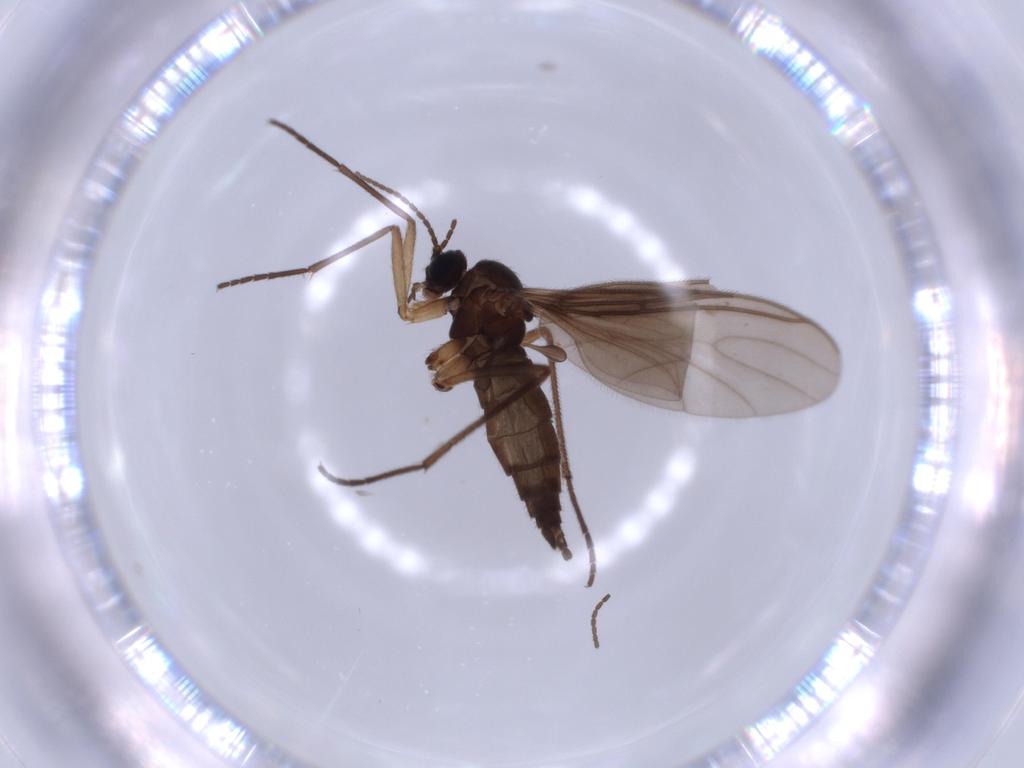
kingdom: Animalia
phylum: Arthropoda
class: Insecta
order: Diptera
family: Sciaridae
